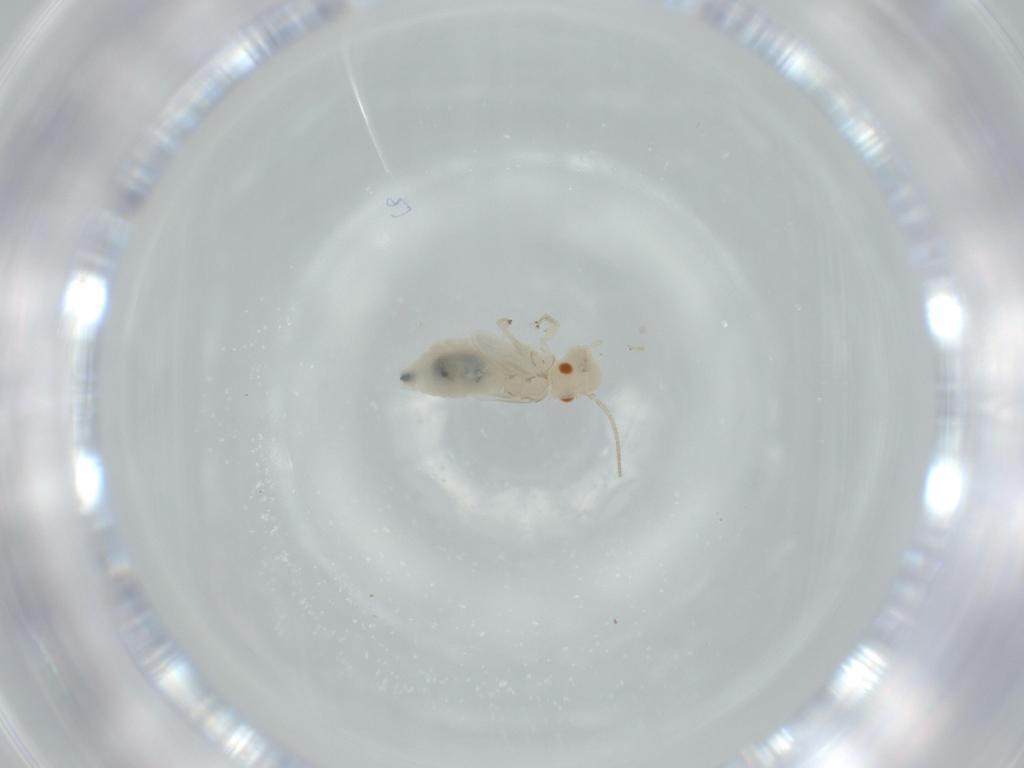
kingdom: Animalia
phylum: Arthropoda
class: Insecta
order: Psocodea
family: Caeciliusidae
